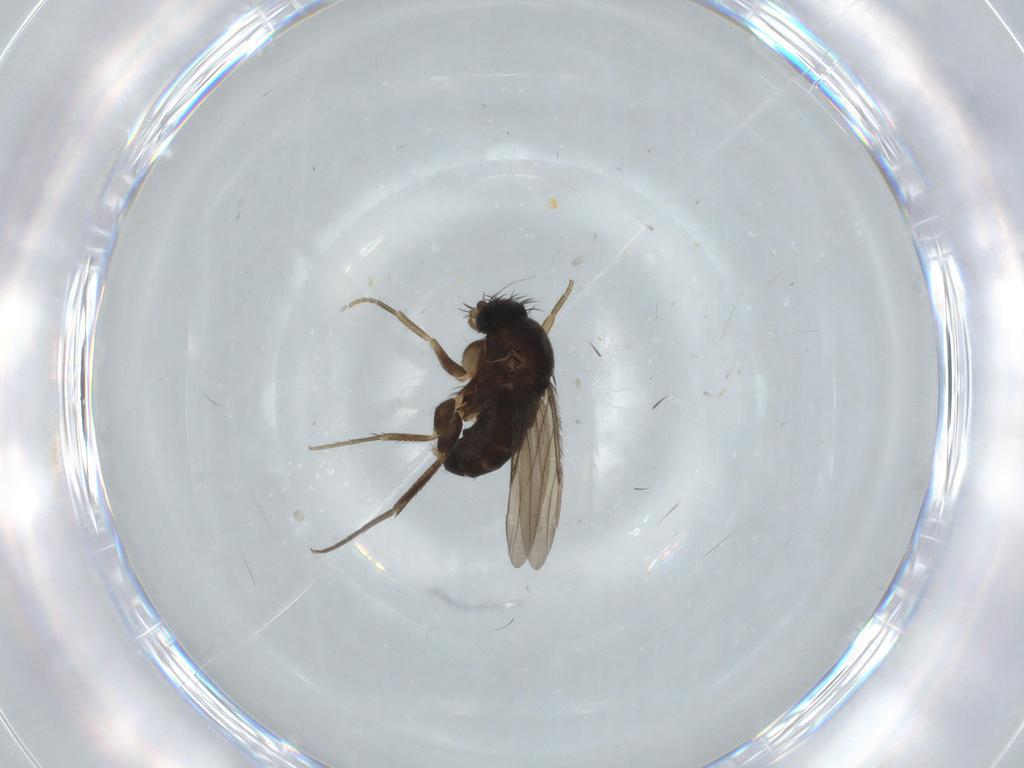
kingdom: Animalia
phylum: Arthropoda
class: Insecta
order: Diptera
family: Phoridae
